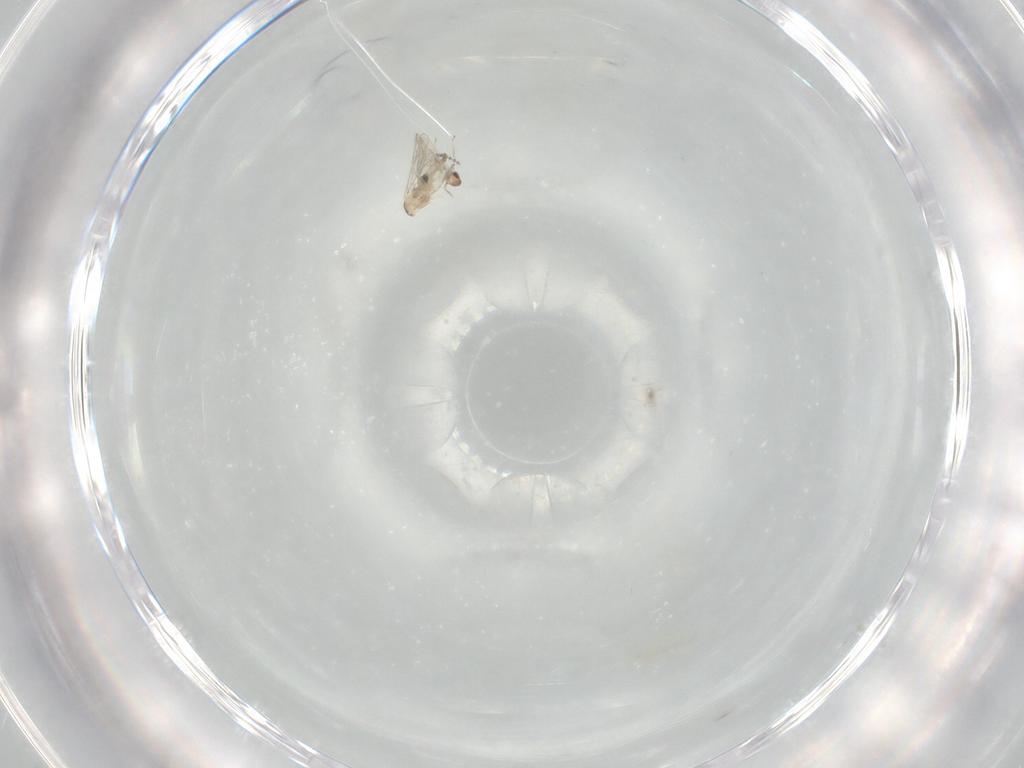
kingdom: Animalia
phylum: Arthropoda
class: Insecta
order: Diptera
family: Cecidomyiidae
